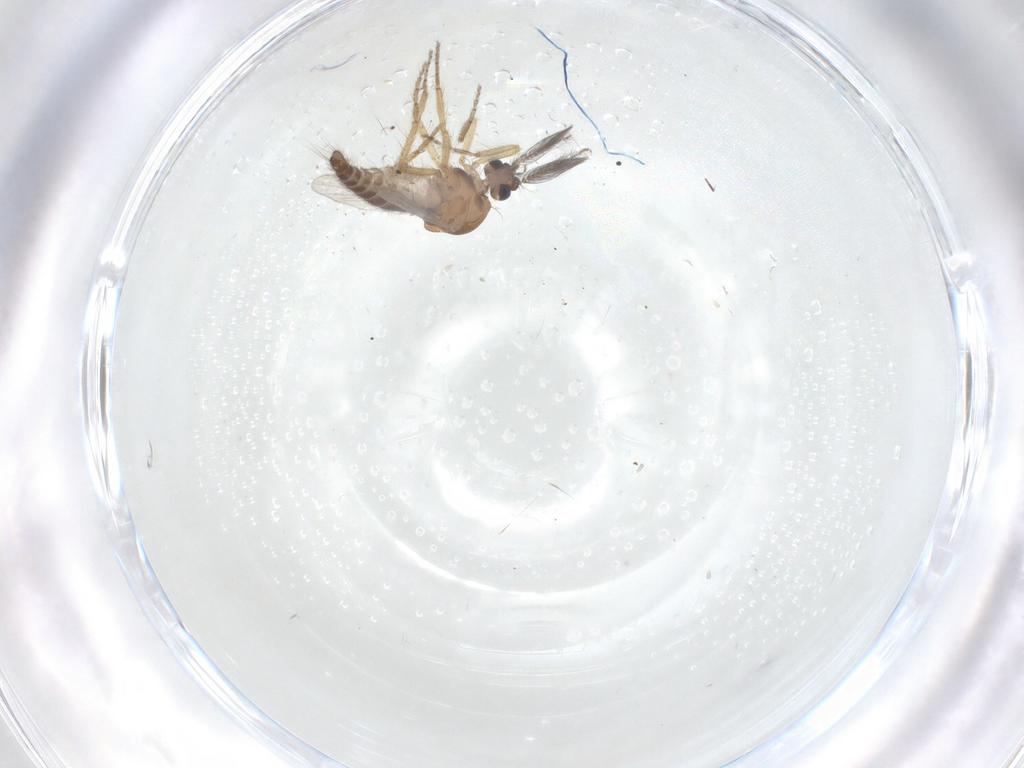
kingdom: Animalia
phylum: Arthropoda
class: Insecta
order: Diptera
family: Ceratopogonidae
